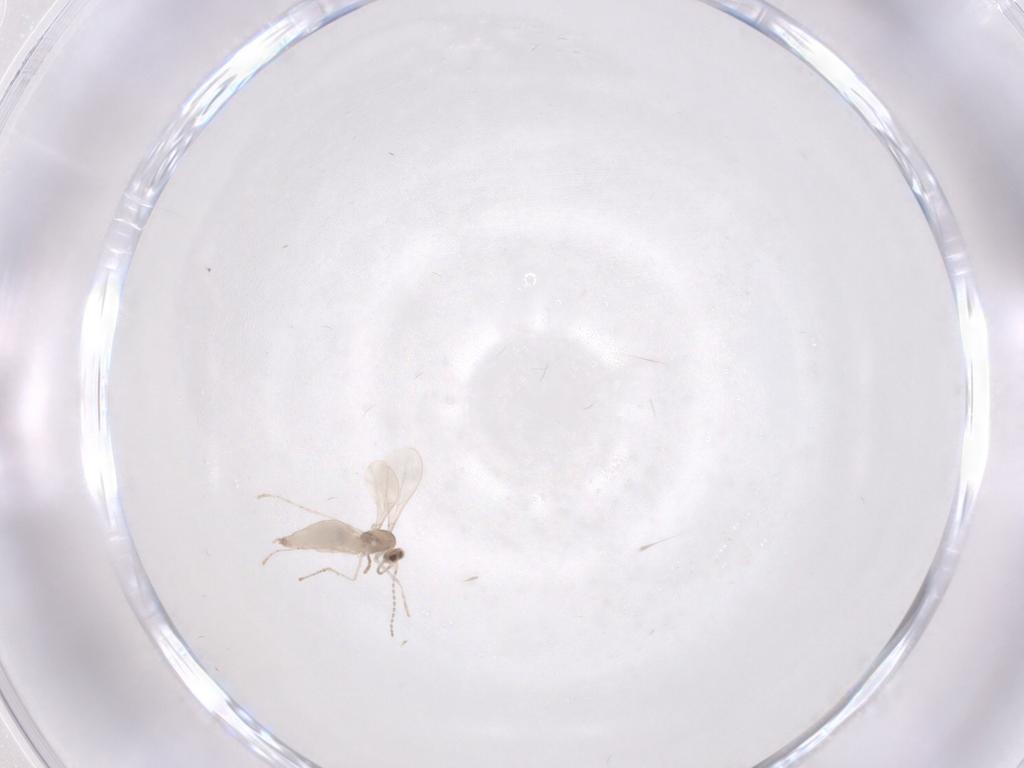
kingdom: Animalia
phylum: Arthropoda
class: Insecta
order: Diptera
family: Cecidomyiidae
